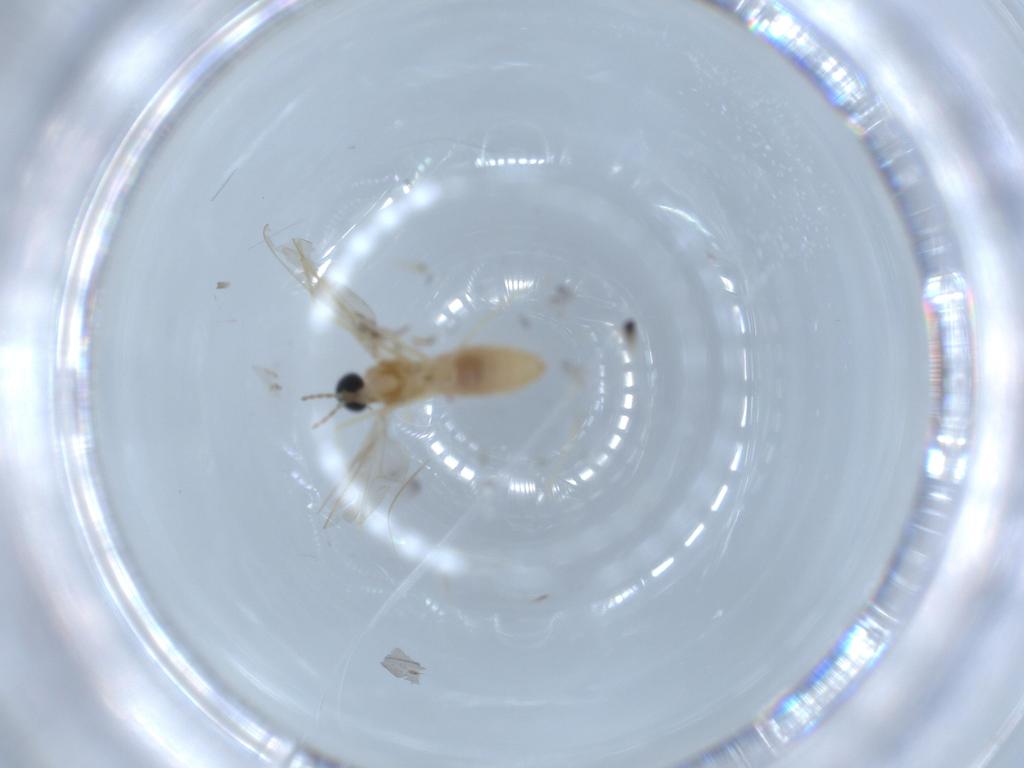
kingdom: Animalia
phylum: Arthropoda
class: Insecta
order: Diptera
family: Cecidomyiidae
